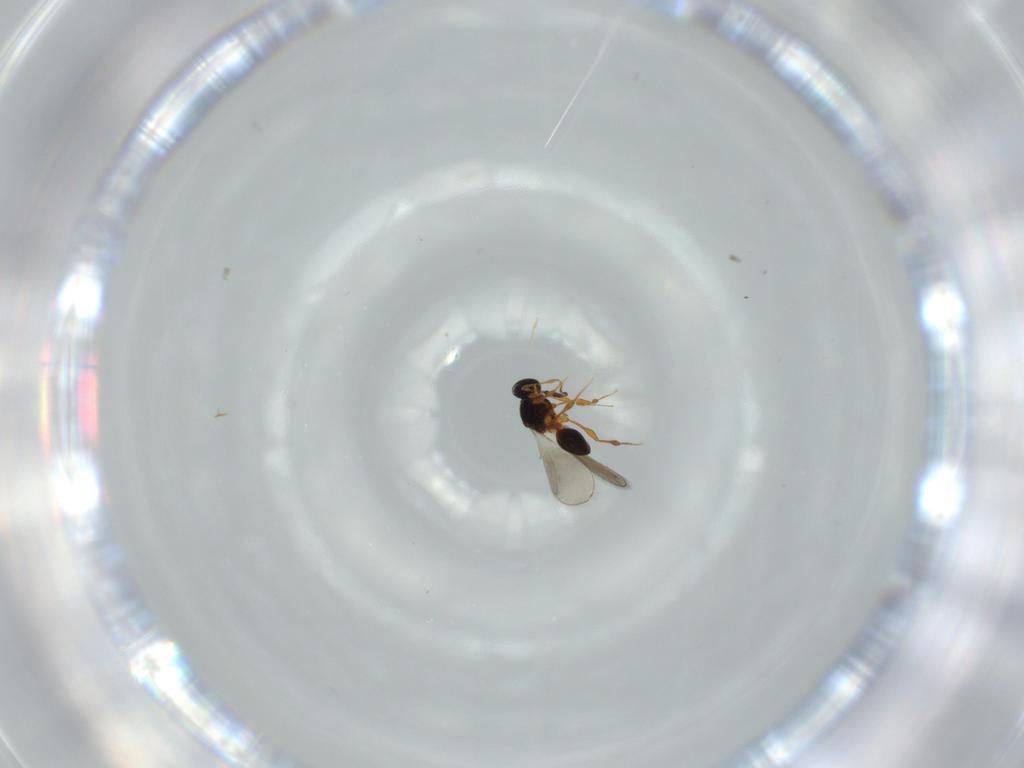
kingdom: Animalia
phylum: Arthropoda
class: Insecta
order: Hymenoptera
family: Platygastridae
